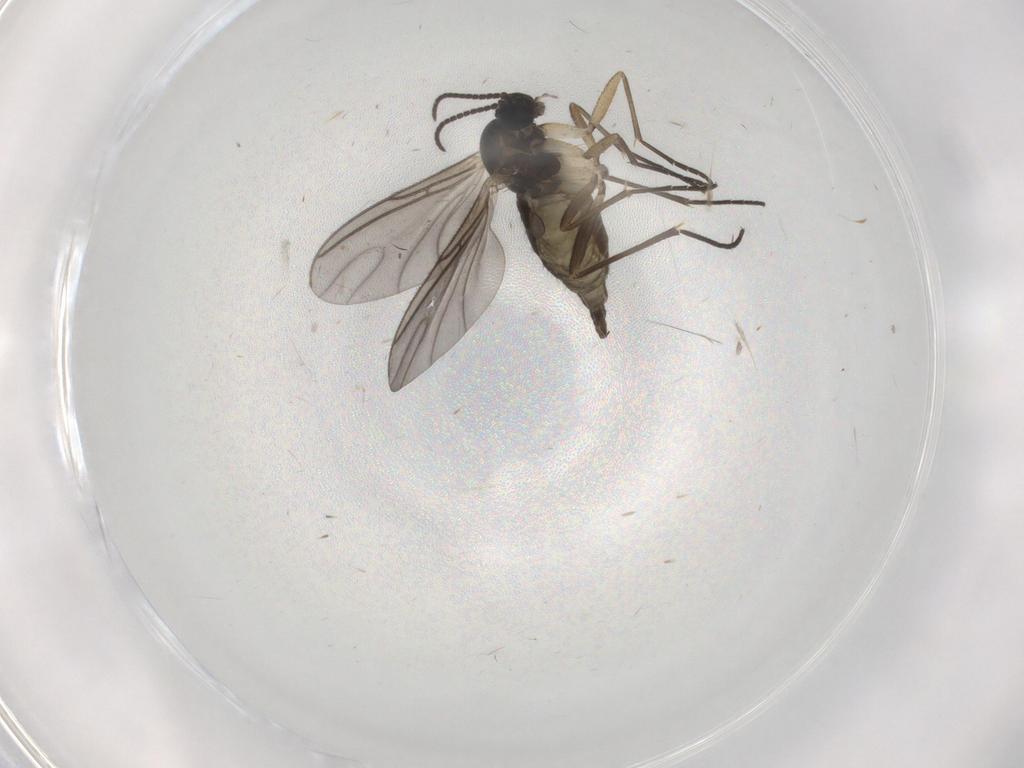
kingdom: Animalia
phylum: Arthropoda
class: Insecta
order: Diptera
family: Sciaridae
